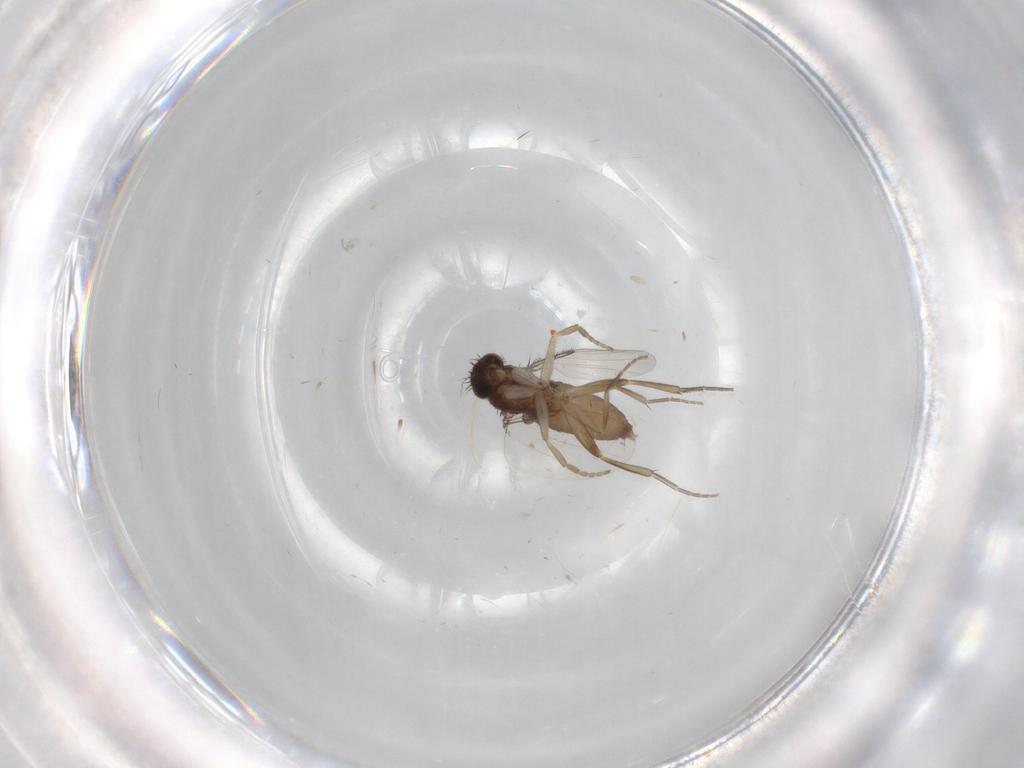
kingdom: Animalia
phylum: Arthropoda
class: Insecta
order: Diptera
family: Phoridae
